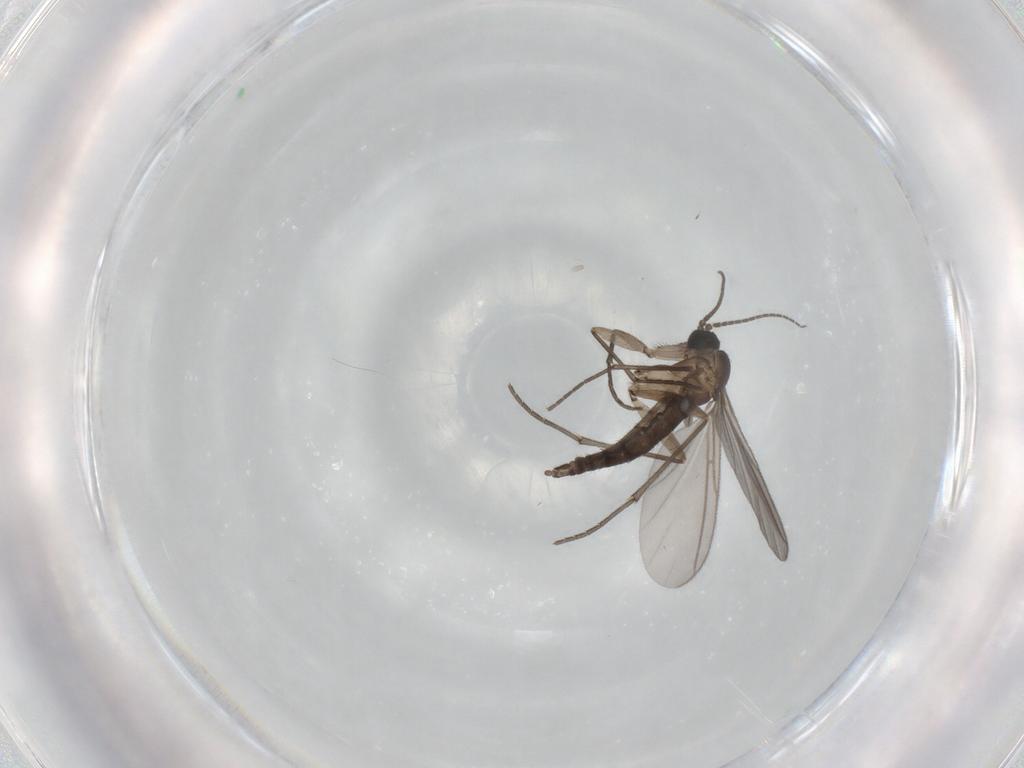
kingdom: Animalia
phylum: Arthropoda
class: Insecta
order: Diptera
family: Sciaridae
